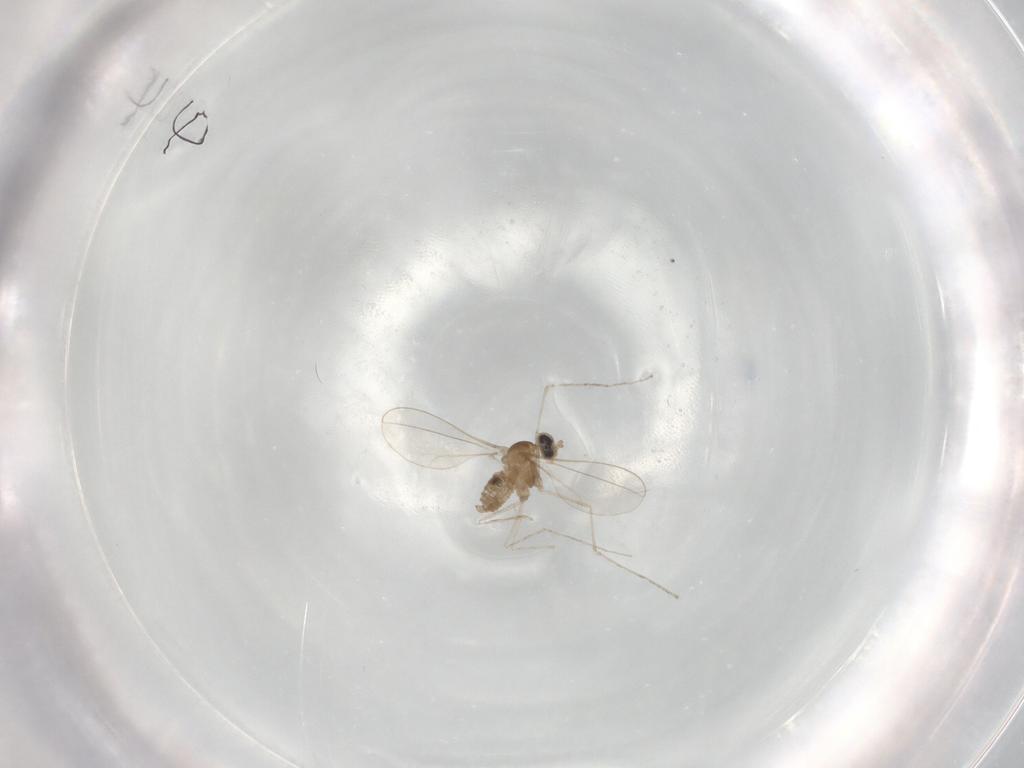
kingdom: Animalia
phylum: Arthropoda
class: Insecta
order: Diptera
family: Cecidomyiidae
